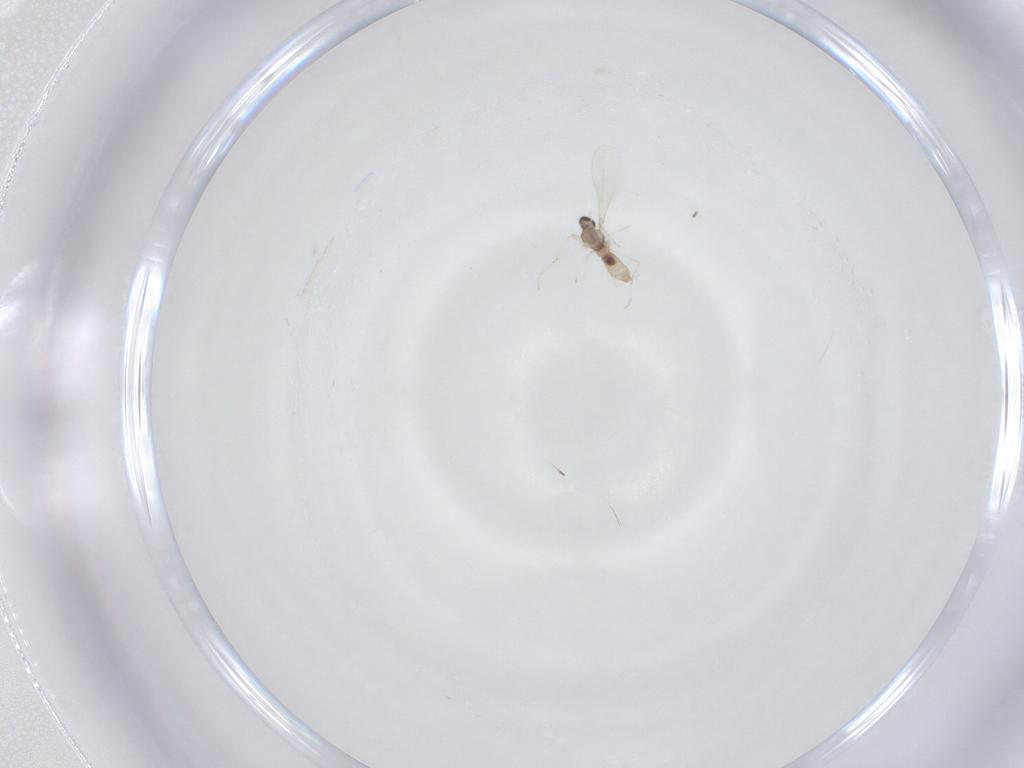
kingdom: Animalia
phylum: Arthropoda
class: Insecta
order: Diptera
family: Cecidomyiidae
